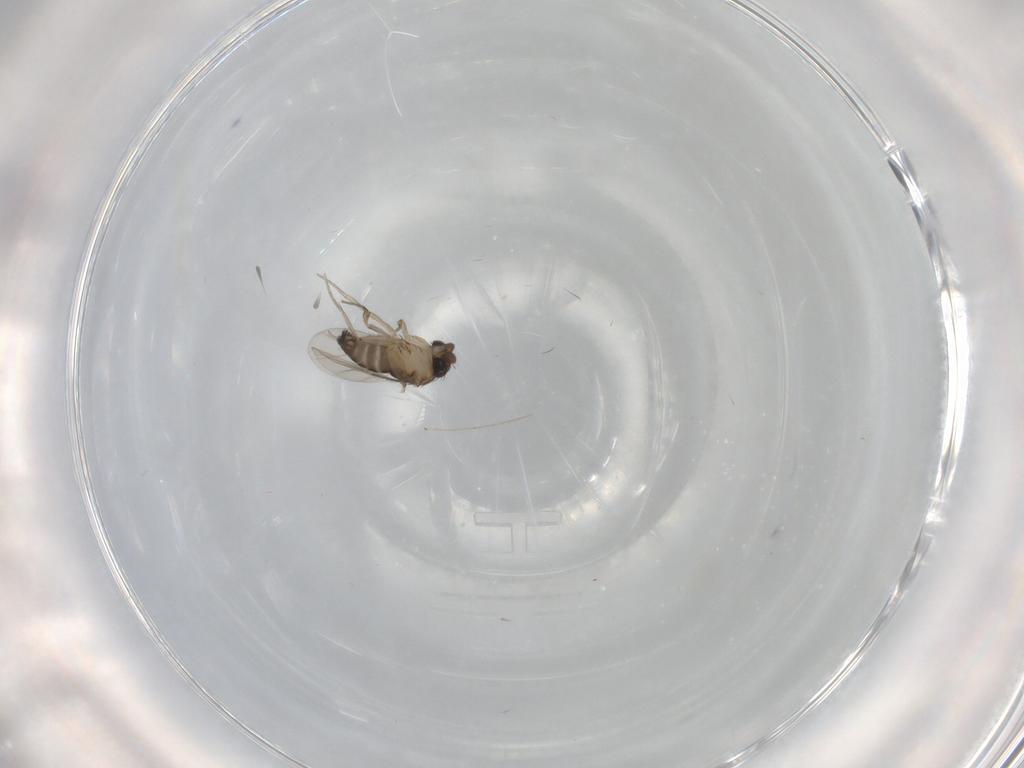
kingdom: Animalia
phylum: Arthropoda
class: Insecta
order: Diptera
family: Phoridae
